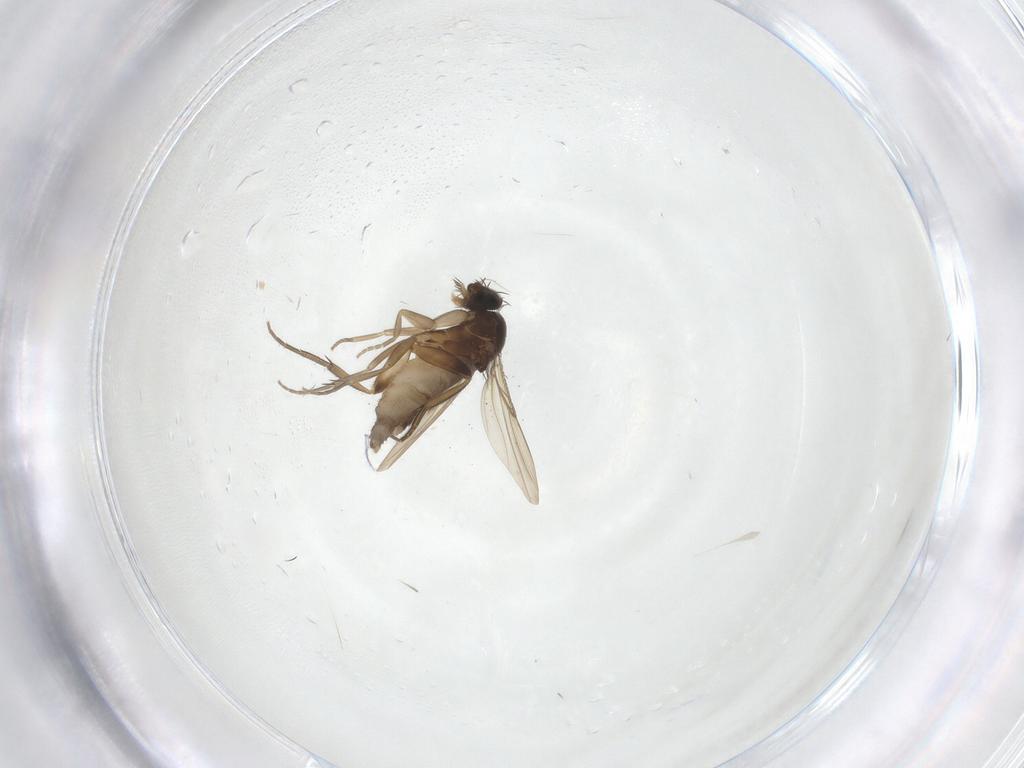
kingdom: Animalia
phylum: Arthropoda
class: Insecta
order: Diptera
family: Phoridae
